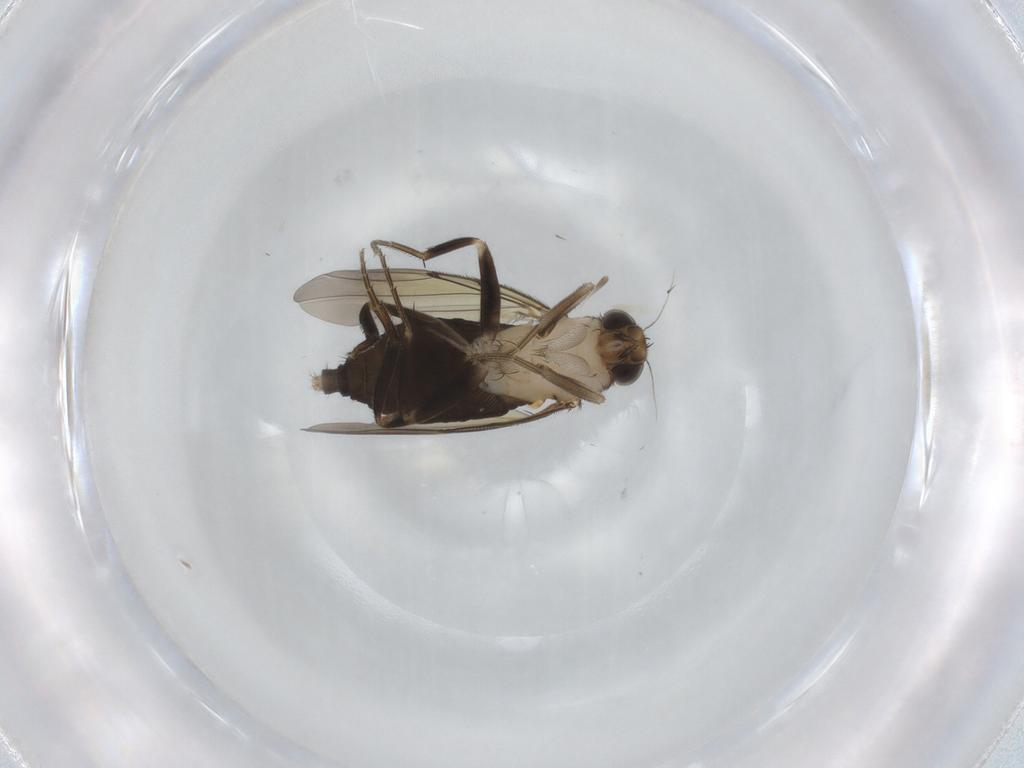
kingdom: Animalia
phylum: Arthropoda
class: Insecta
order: Diptera
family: Phoridae
